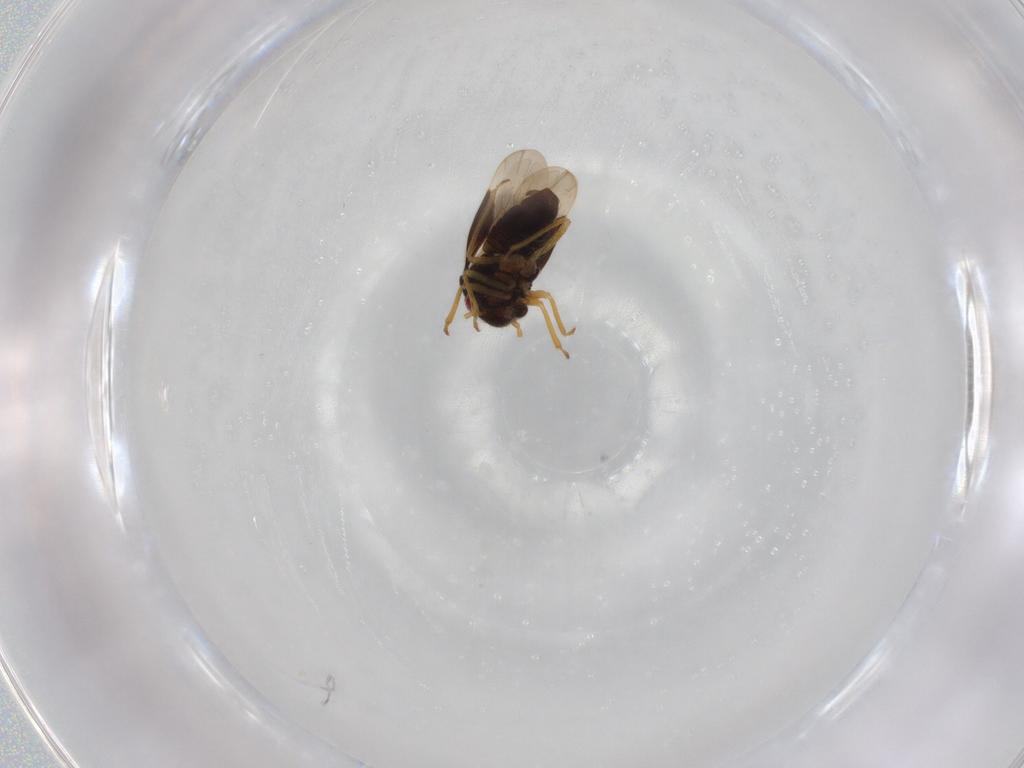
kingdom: Animalia
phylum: Arthropoda
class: Insecta
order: Hemiptera
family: Schizopteridae
